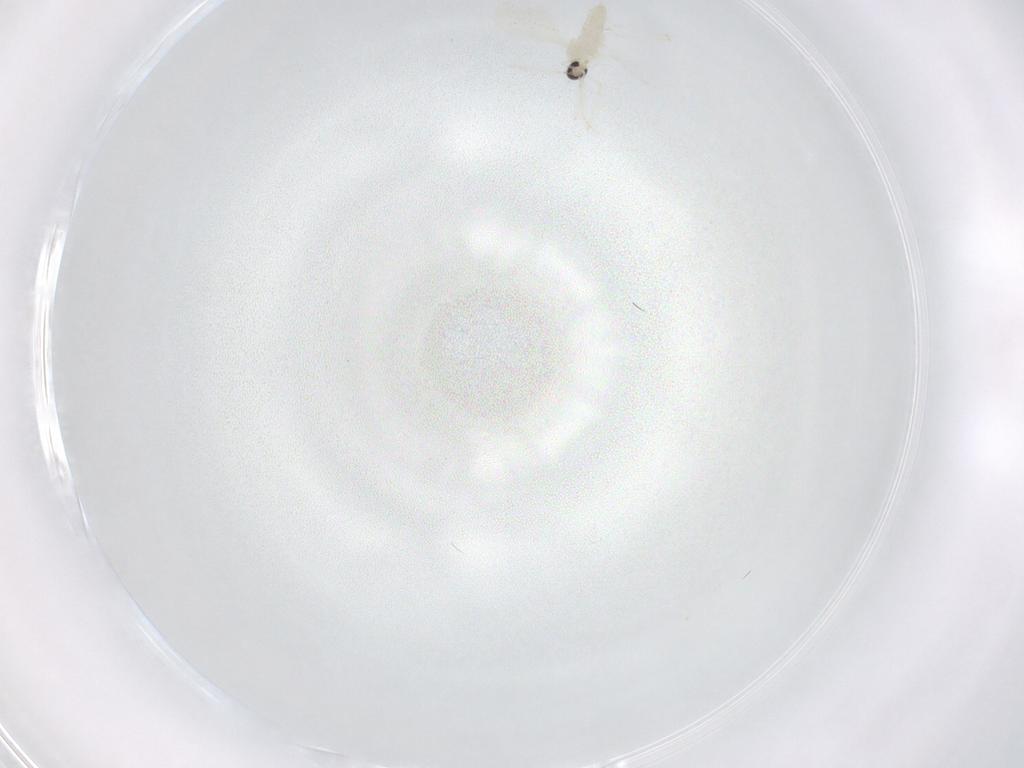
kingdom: Animalia
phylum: Arthropoda
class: Insecta
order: Diptera
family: Cecidomyiidae
